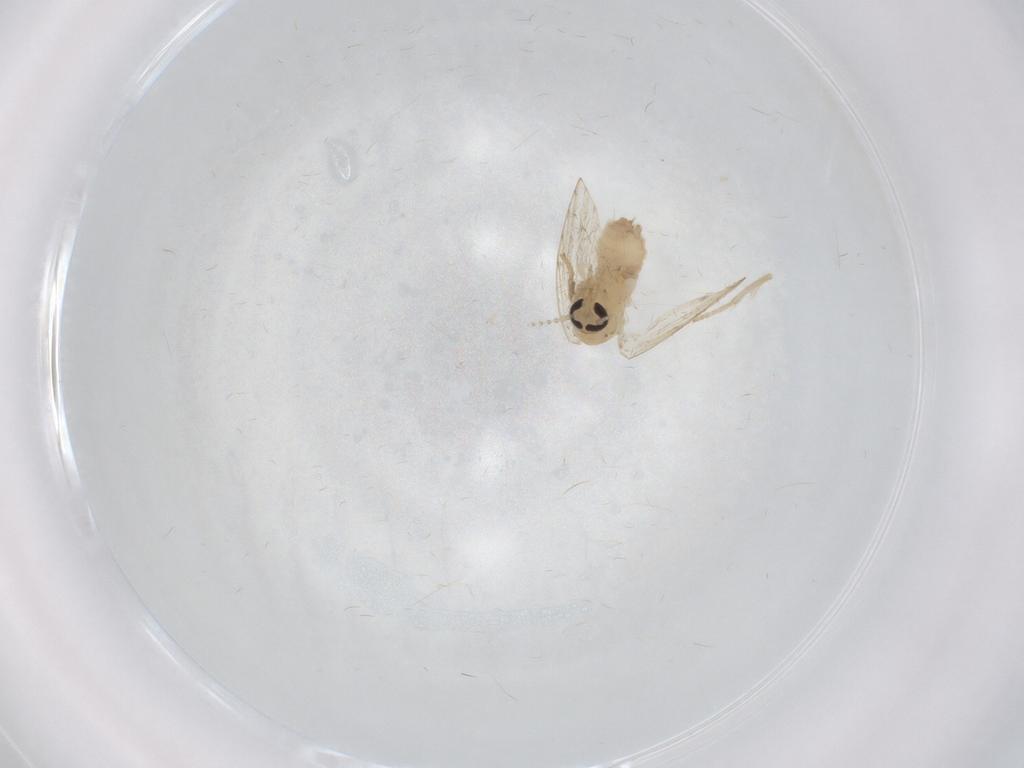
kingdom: Animalia
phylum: Arthropoda
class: Insecta
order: Diptera
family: Psychodidae
